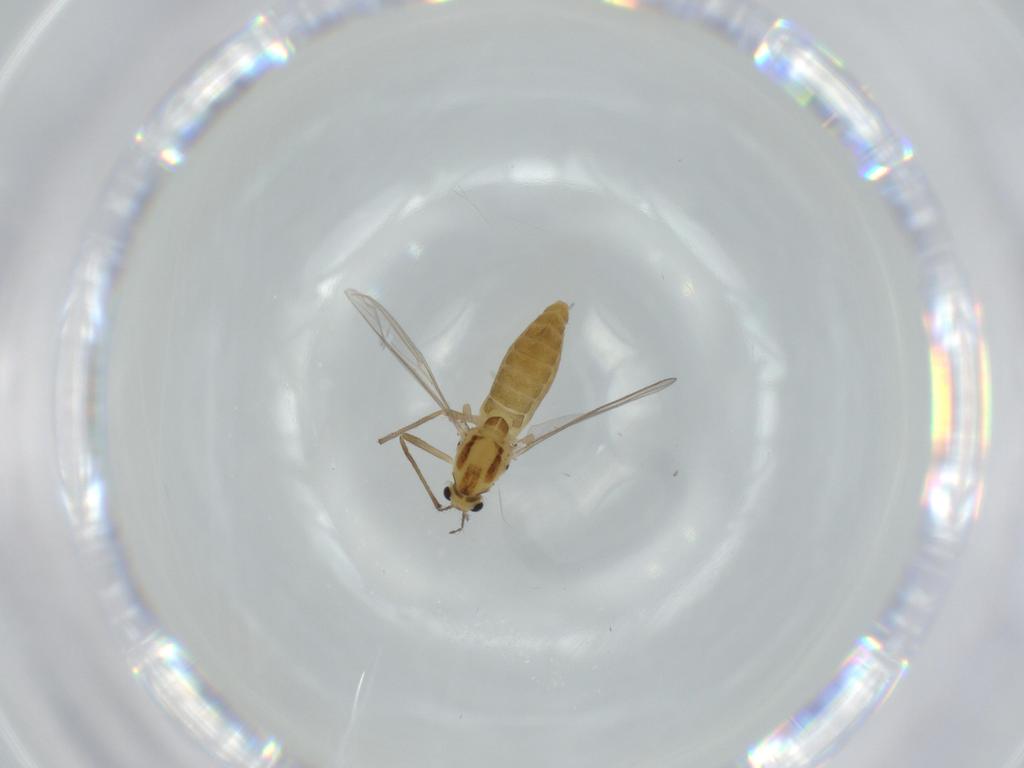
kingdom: Animalia
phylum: Arthropoda
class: Insecta
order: Diptera
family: Chironomidae
